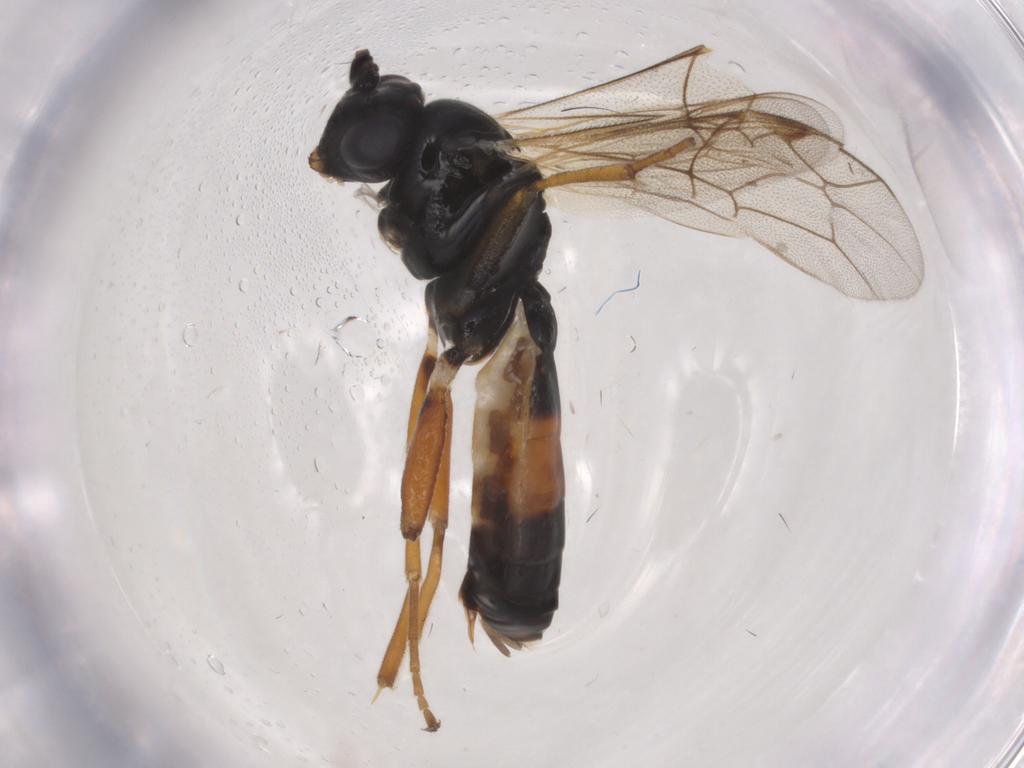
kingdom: Animalia
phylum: Arthropoda
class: Insecta
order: Hymenoptera
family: Ichneumonidae
